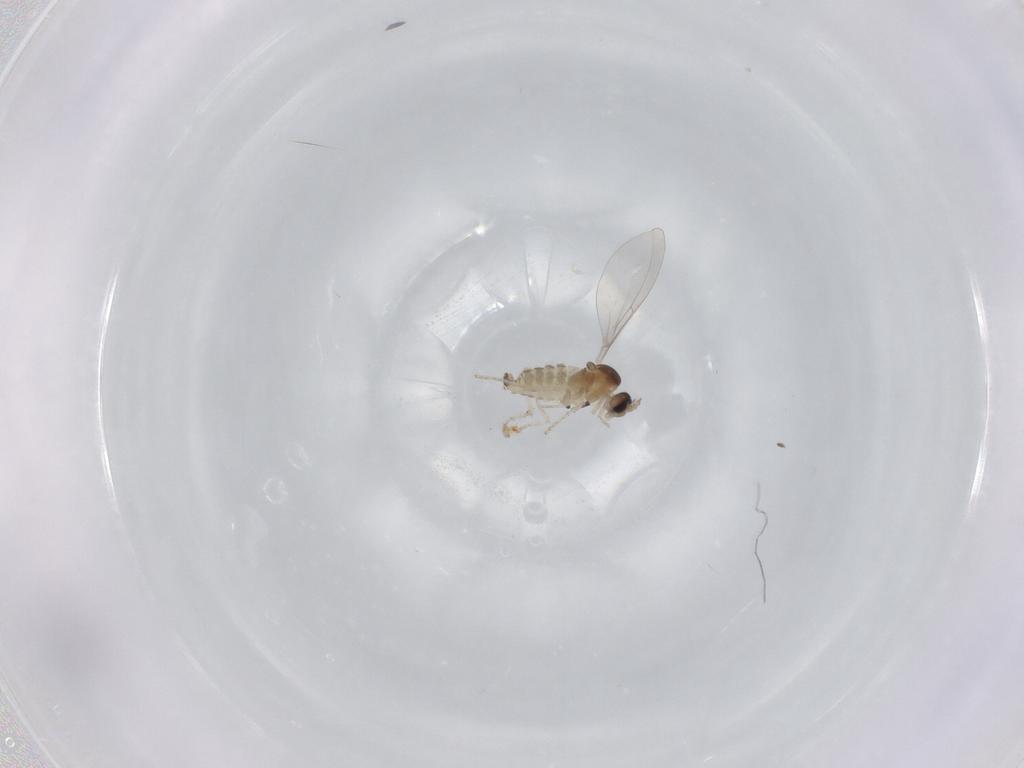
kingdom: Animalia
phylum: Arthropoda
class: Insecta
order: Diptera
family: Cecidomyiidae
